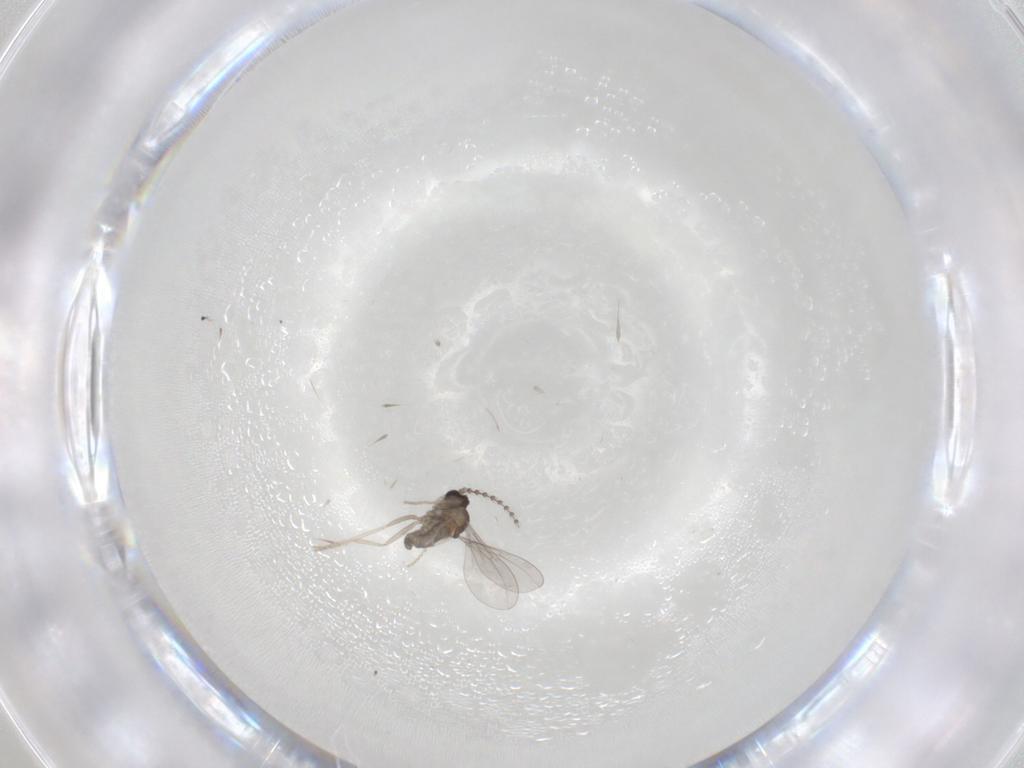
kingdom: Animalia
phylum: Arthropoda
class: Insecta
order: Diptera
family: Cecidomyiidae
